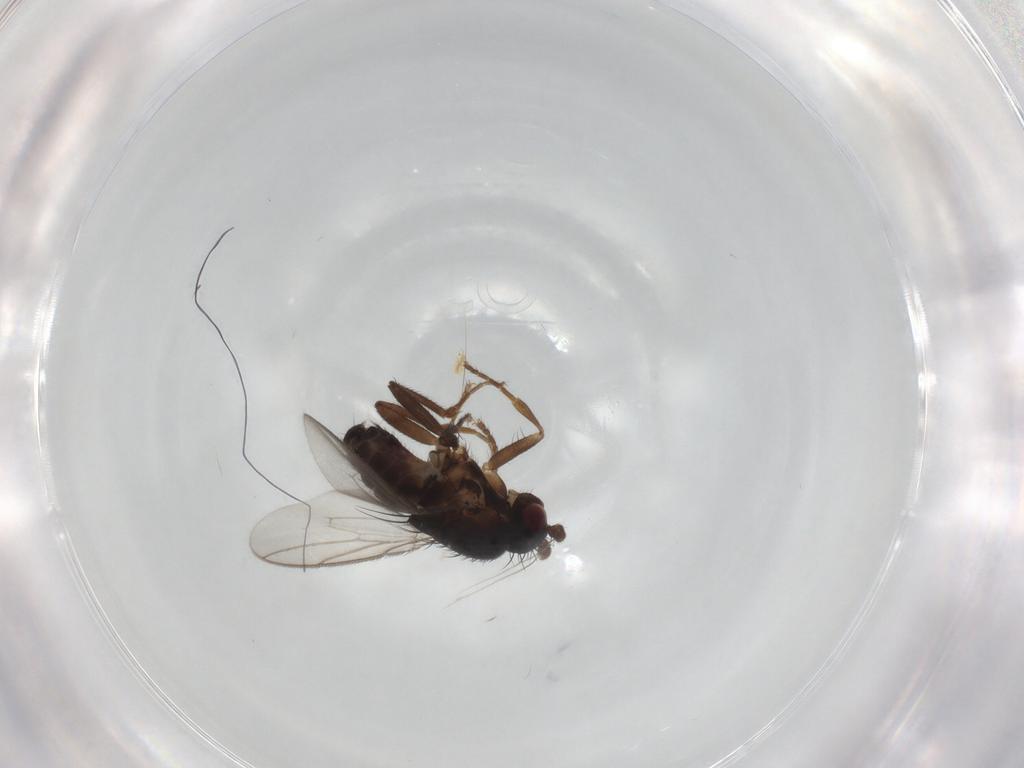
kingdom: Animalia
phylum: Arthropoda
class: Insecta
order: Diptera
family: Sphaeroceridae
